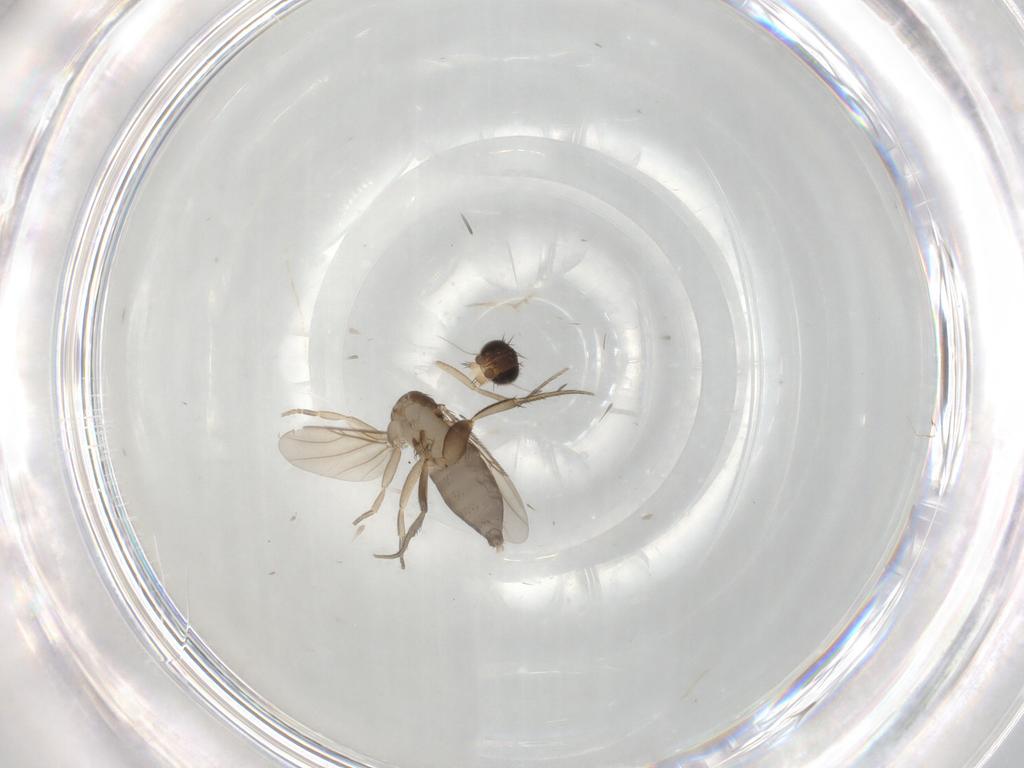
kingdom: Animalia
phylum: Arthropoda
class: Insecta
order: Diptera
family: Phoridae
